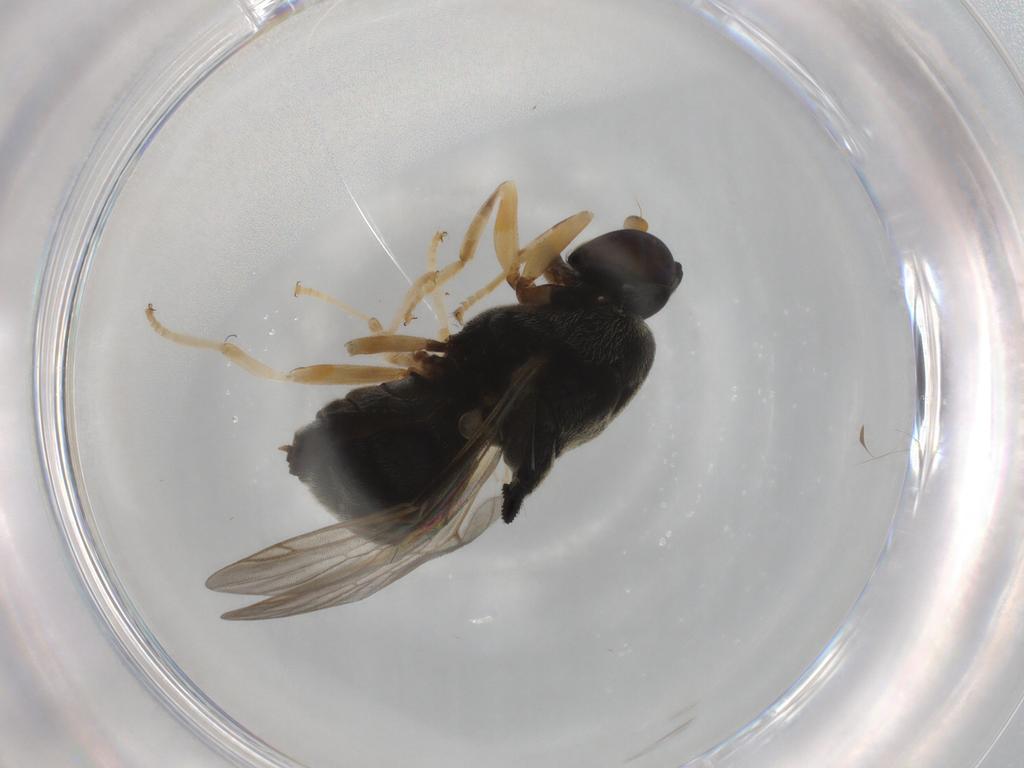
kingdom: Animalia
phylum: Arthropoda
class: Insecta
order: Diptera
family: Stratiomyidae
